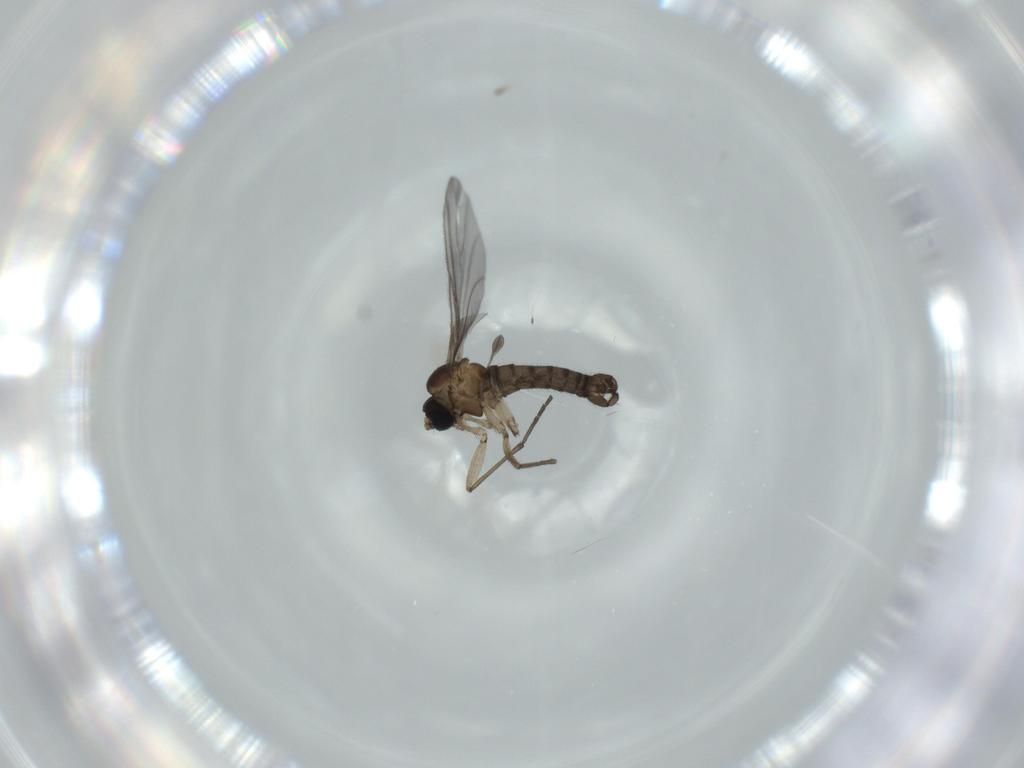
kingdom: Animalia
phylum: Arthropoda
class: Insecta
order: Diptera
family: Sciaridae
